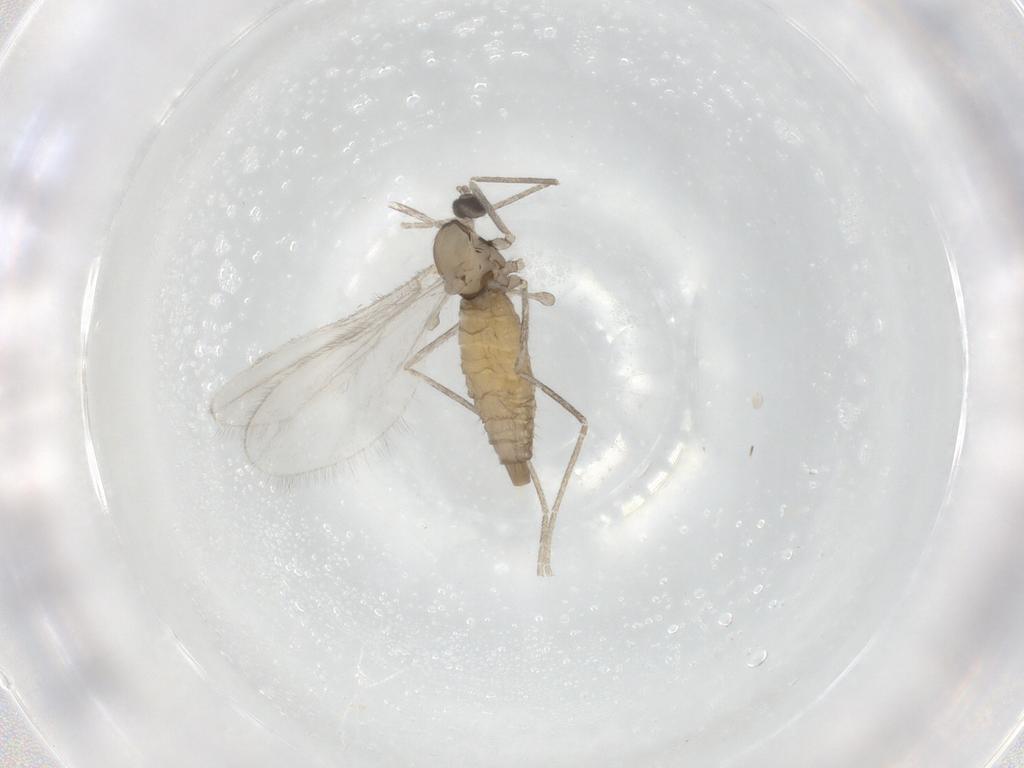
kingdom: Animalia
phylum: Arthropoda
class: Insecta
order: Diptera
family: Cecidomyiidae
